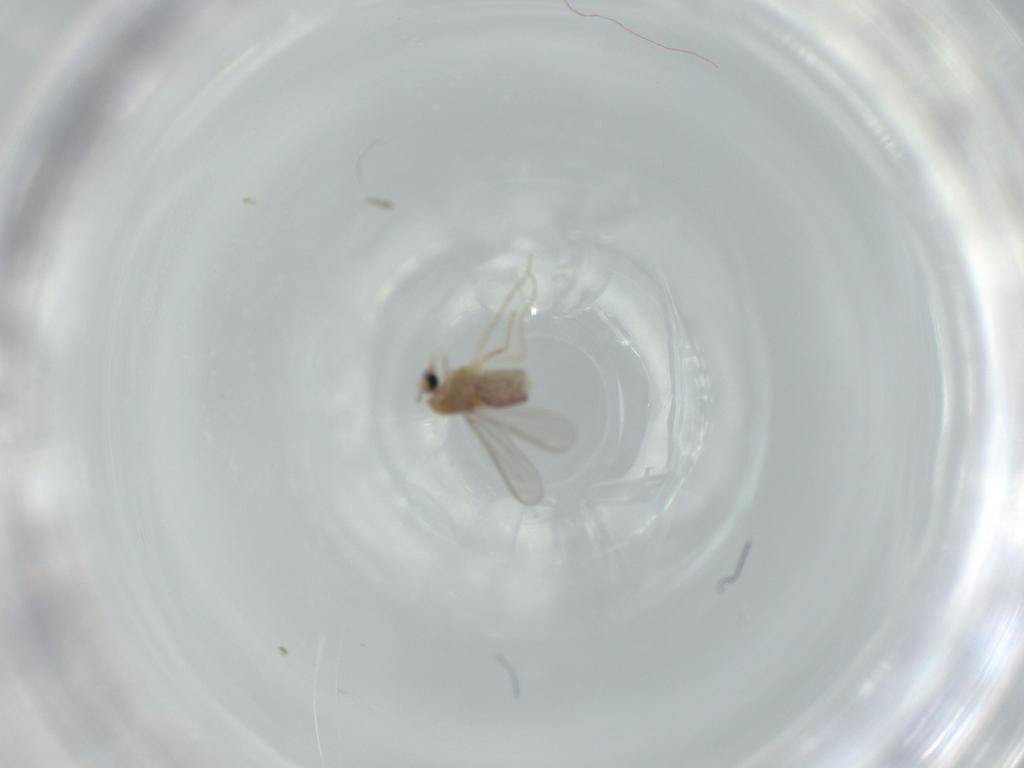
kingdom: Animalia
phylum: Arthropoda
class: Insecta
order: Diptera
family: Chironomidae
